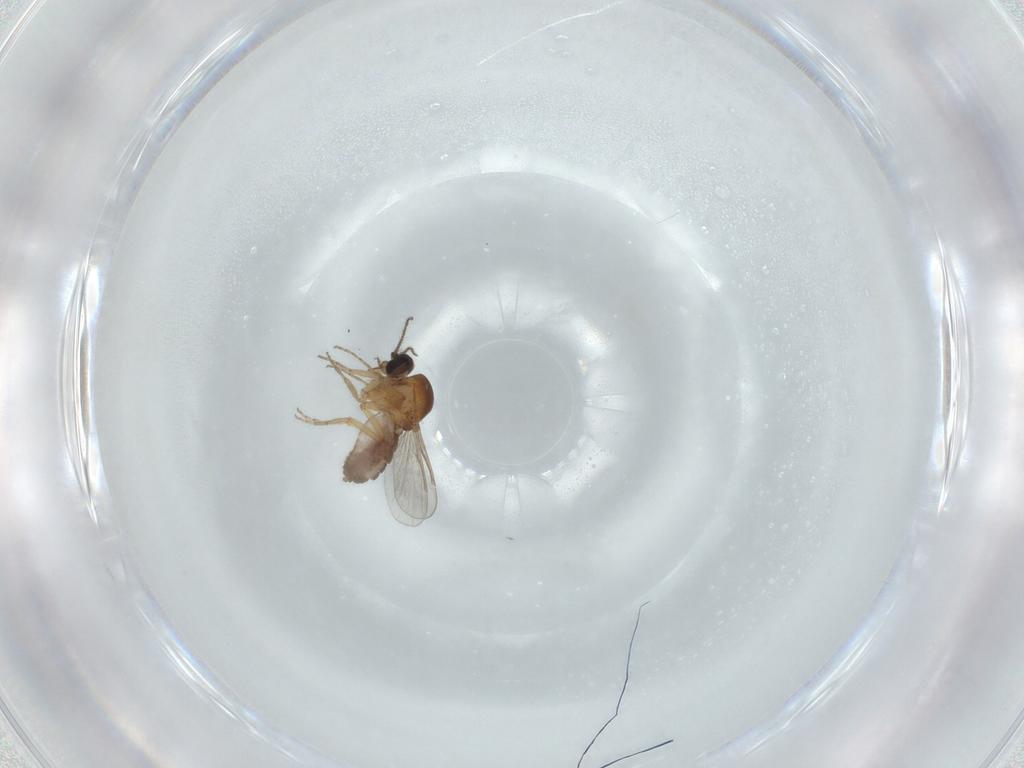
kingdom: Animalia
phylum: Arthropoda
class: Insecta
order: Diptera
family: Ceratopogonidae
